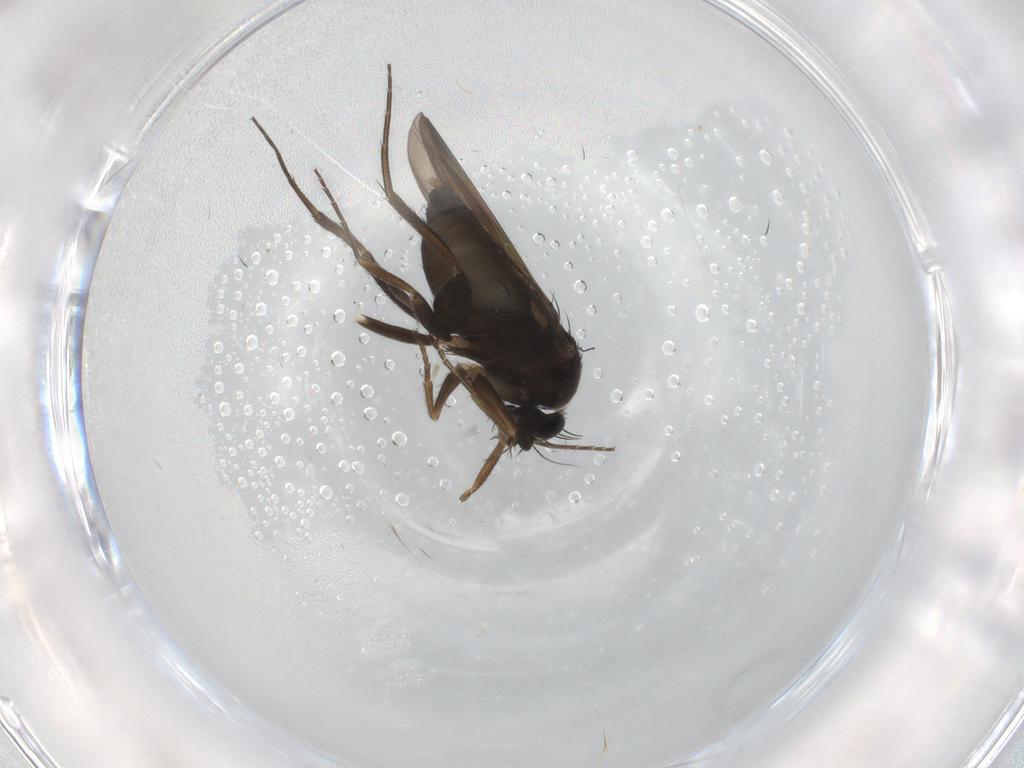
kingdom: Animalia
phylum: Arthropoda
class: Insecta
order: Diptera
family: Phoridae
